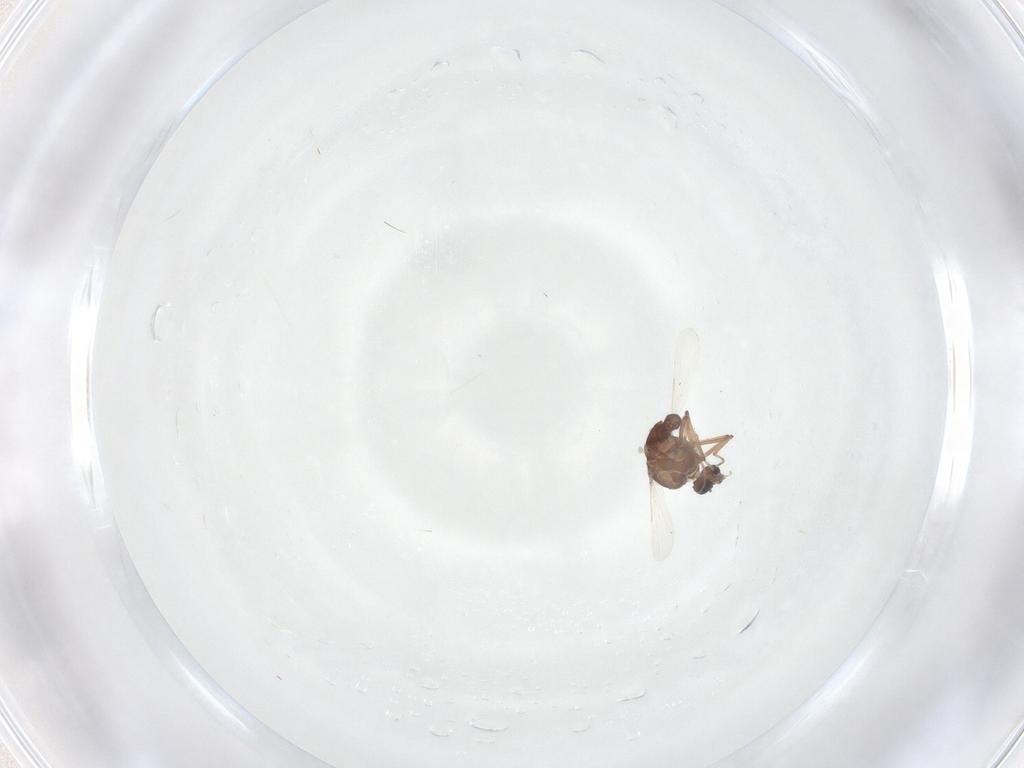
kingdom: Animalia
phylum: Arthropoda
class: Insecta
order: Diptera
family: Ceratopogonidae
